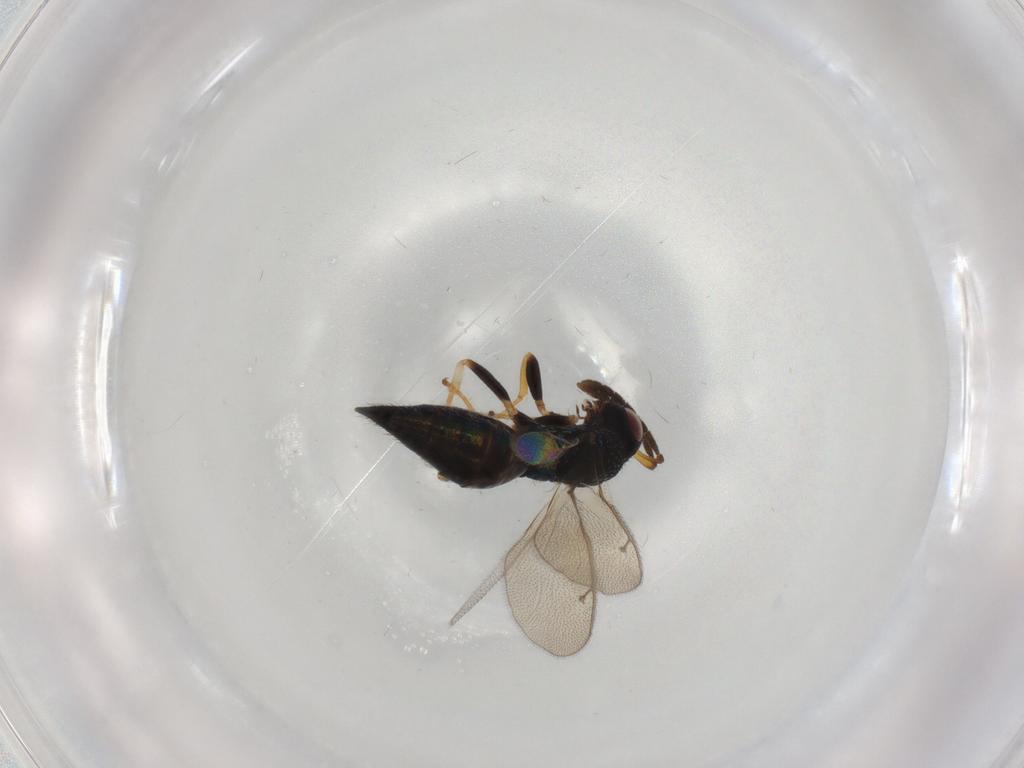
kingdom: Animalia
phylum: Arthropoda
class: Insecta
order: Hymenoptera
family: Pteromalidae
